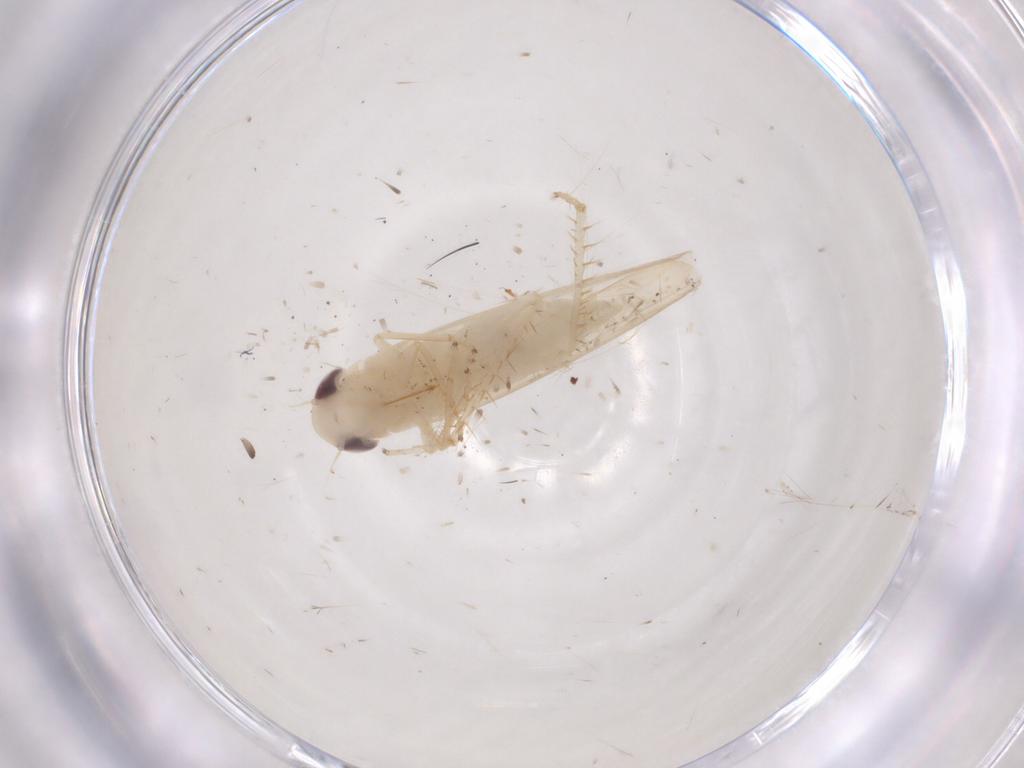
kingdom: Animalia
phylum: Arthropoda
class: Insecta
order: Hemiptera
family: Cicadellidae
